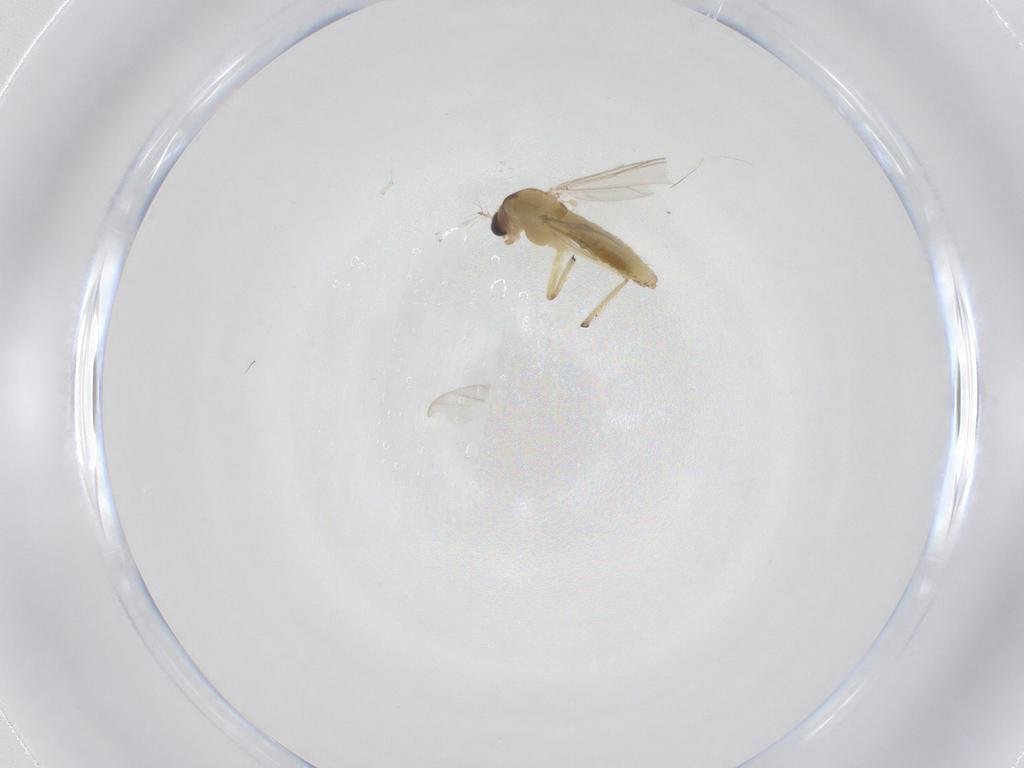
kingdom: Animalia
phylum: Arthropoda
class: Insecta
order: Diptera
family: Chironomidae
